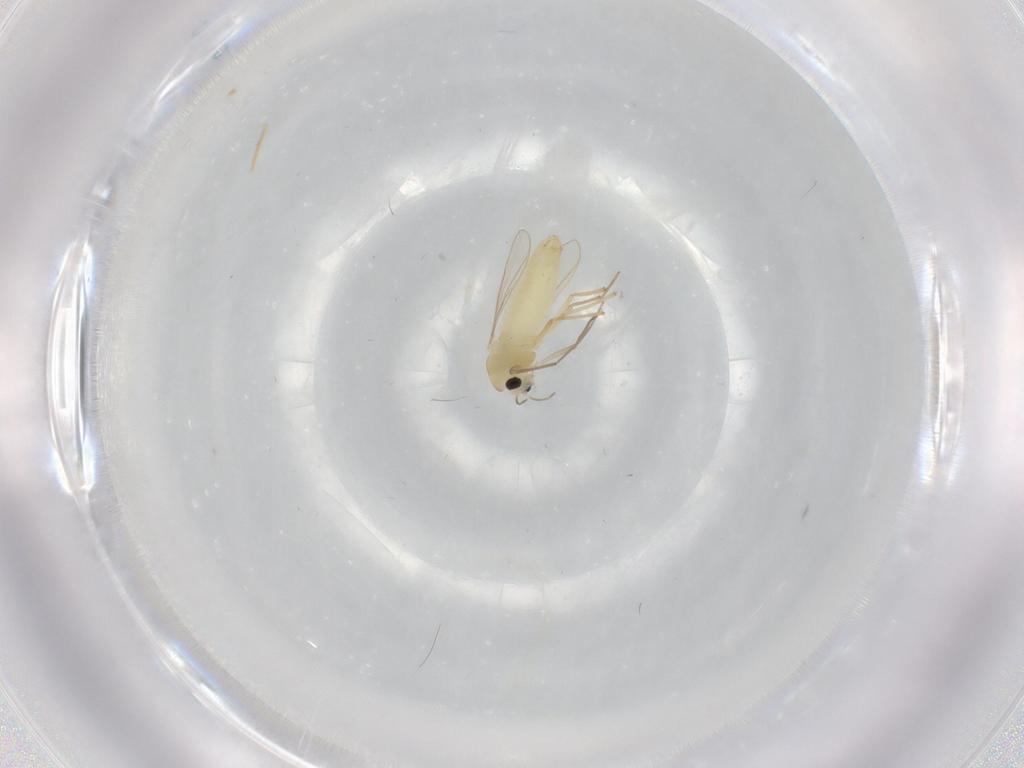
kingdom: Animalia
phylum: Arthropoda
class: Insecta
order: Diptera
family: Chironomidae
